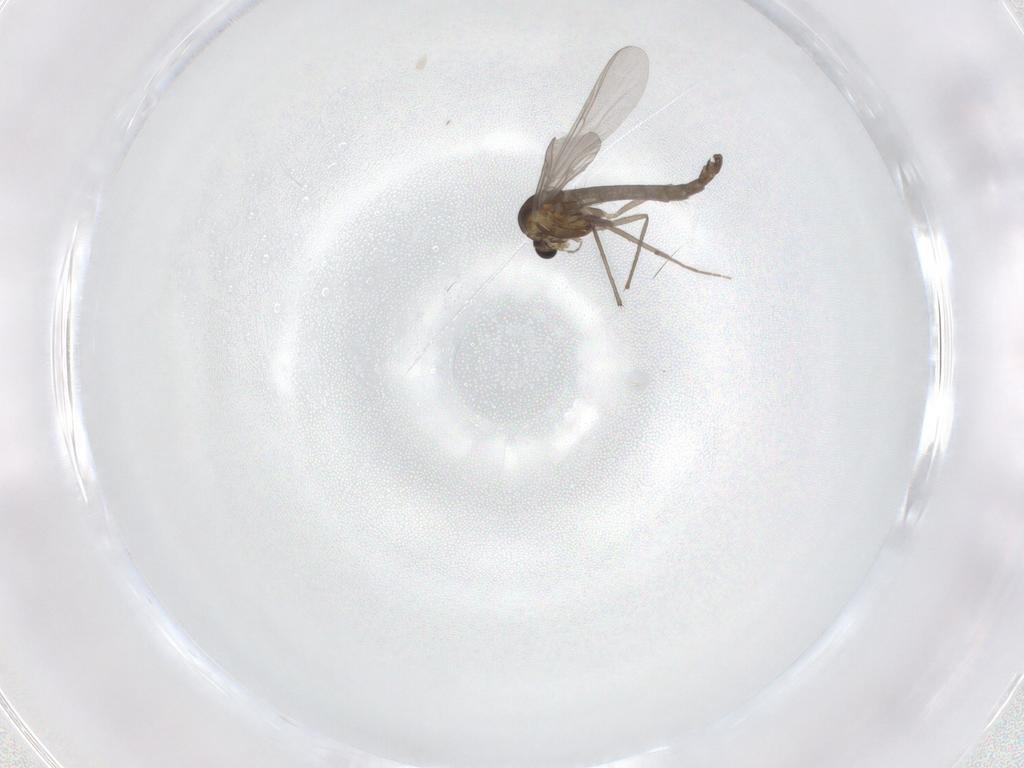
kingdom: Animalia
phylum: Arthropoda
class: Insecta
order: Diptera
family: Chironomidae
